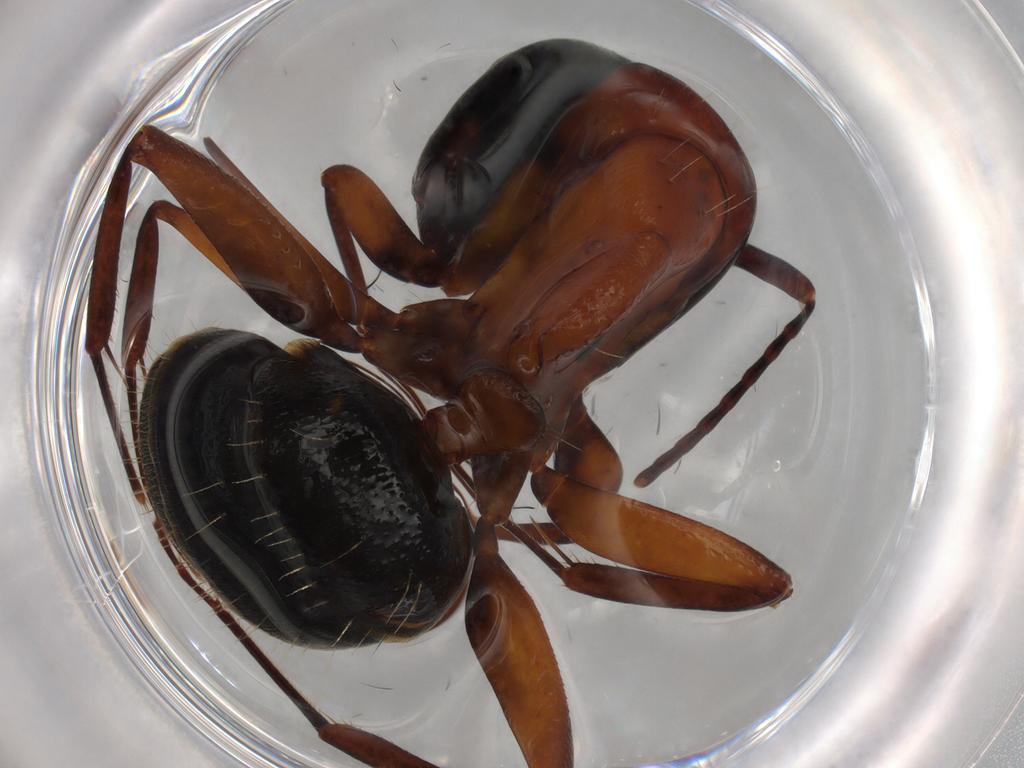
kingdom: Animalia
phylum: Arthropoda
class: Insecta
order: Hymenoptera
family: Formicidae
